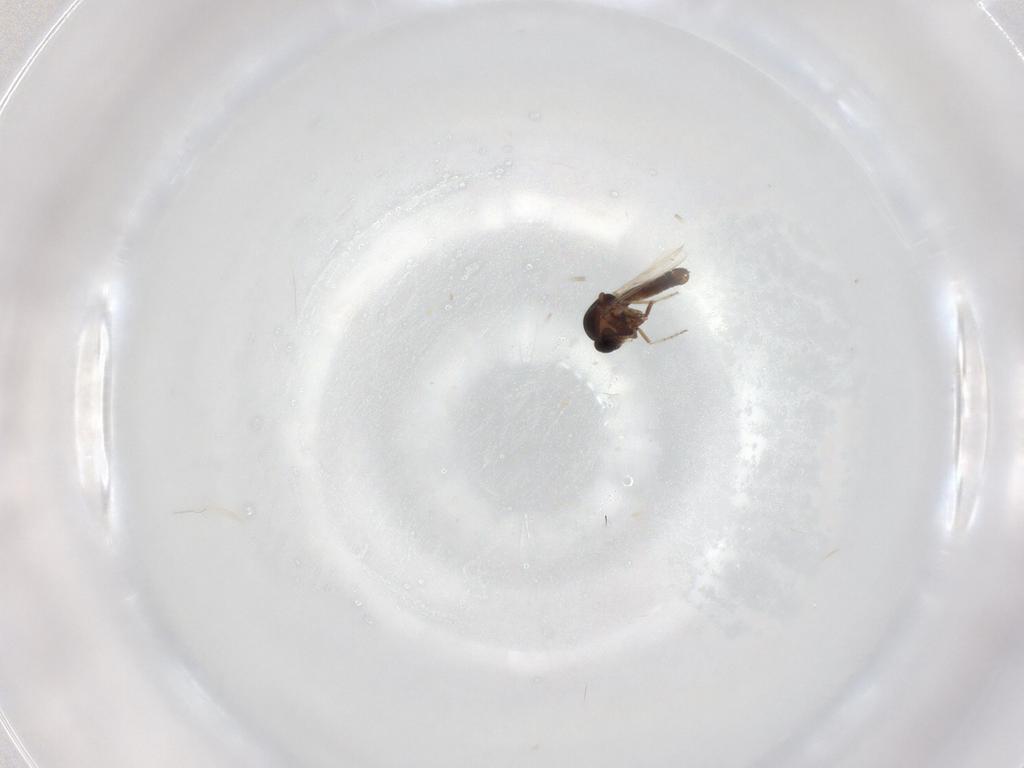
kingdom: Animalia
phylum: Arthropoda
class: Insecta
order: Diptera
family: Ceratopogonidae
